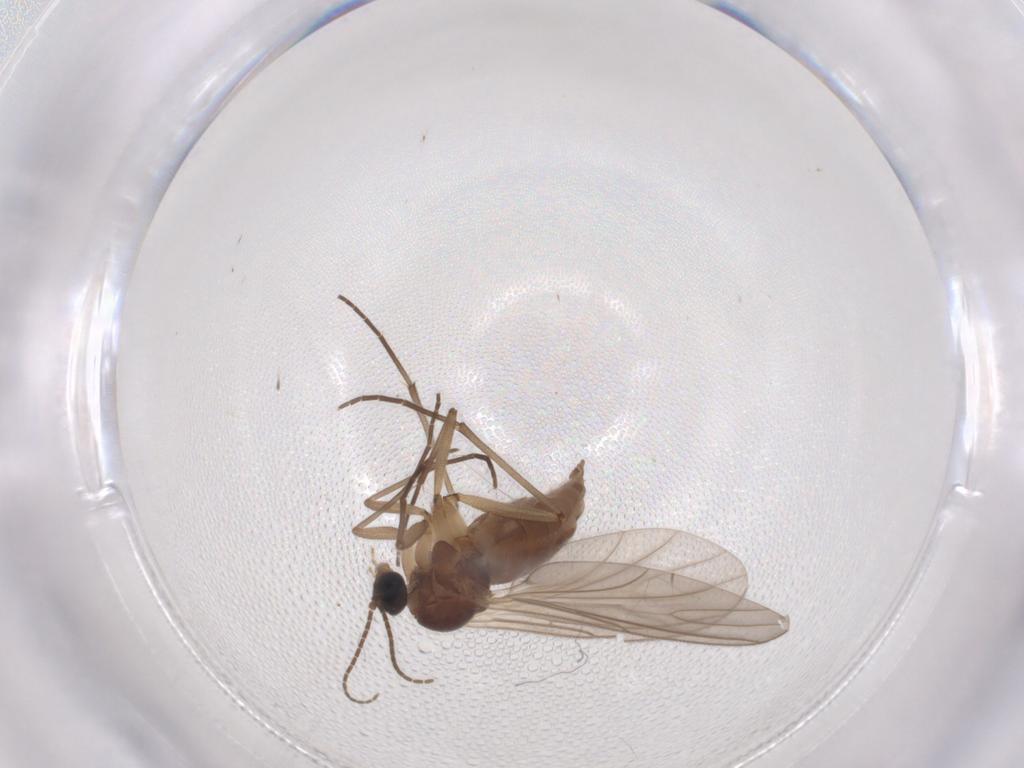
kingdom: Animalia
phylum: Arthropoda
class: Insecta
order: Diptera
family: Sciaridae
